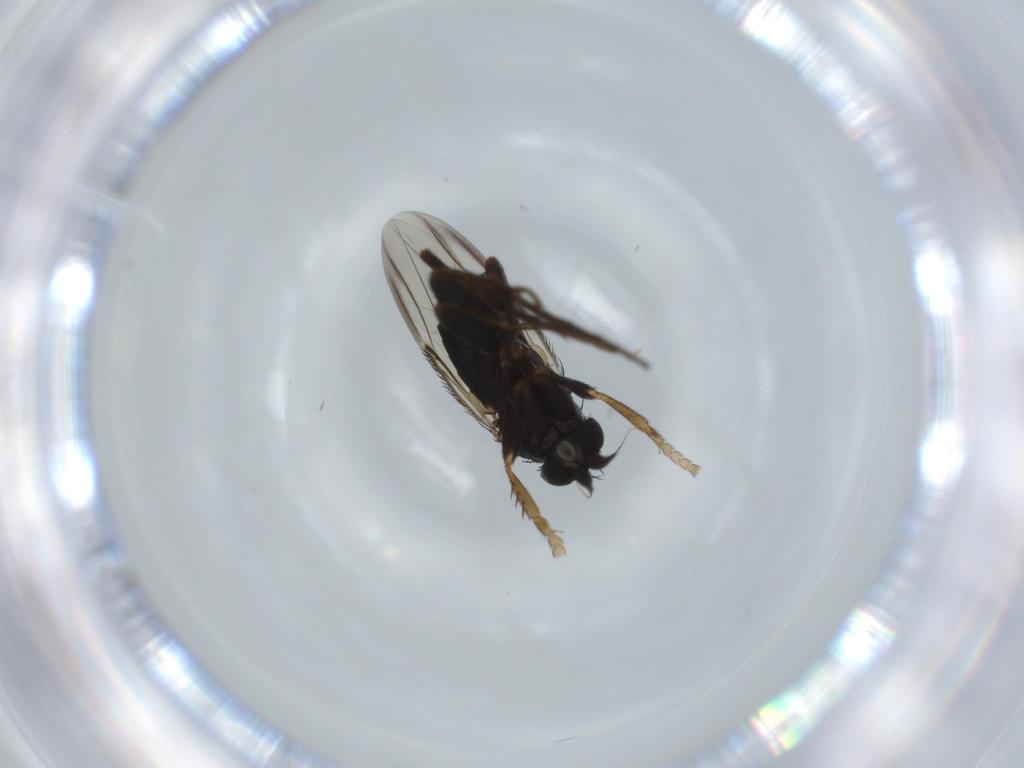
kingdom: Animalia
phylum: Arthropoda
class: Insecta
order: Diptera
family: Phoridae
